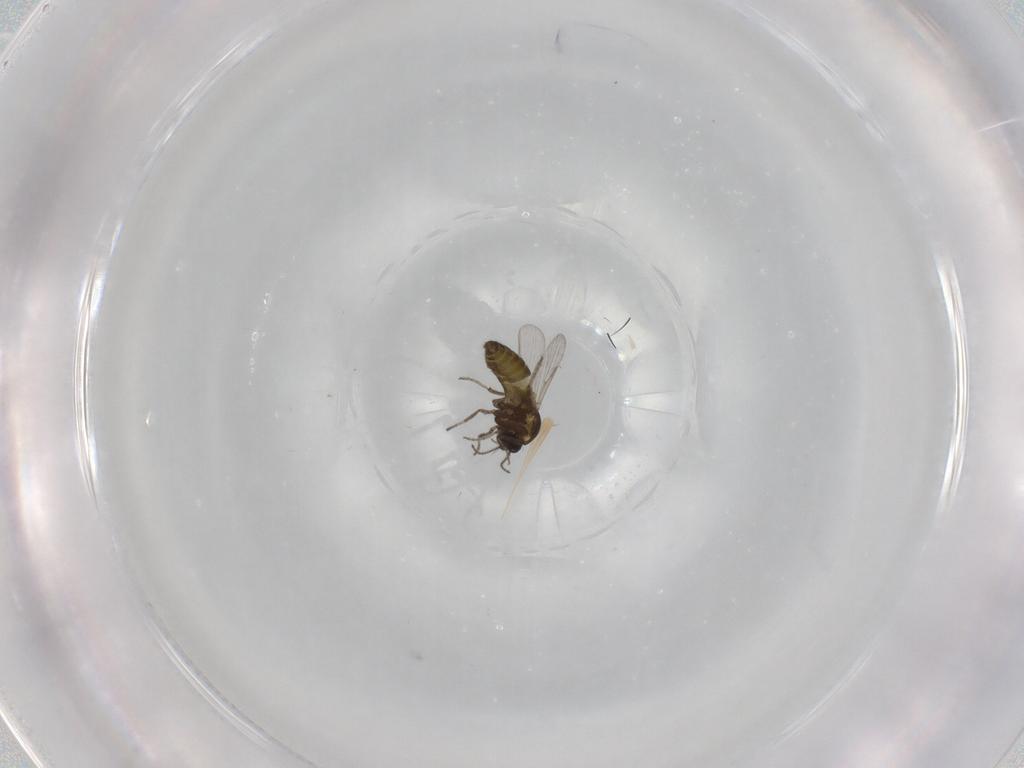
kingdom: Animalia
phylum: Arthropoda
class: Insecta
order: Diptera
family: Ceratopogonidae
